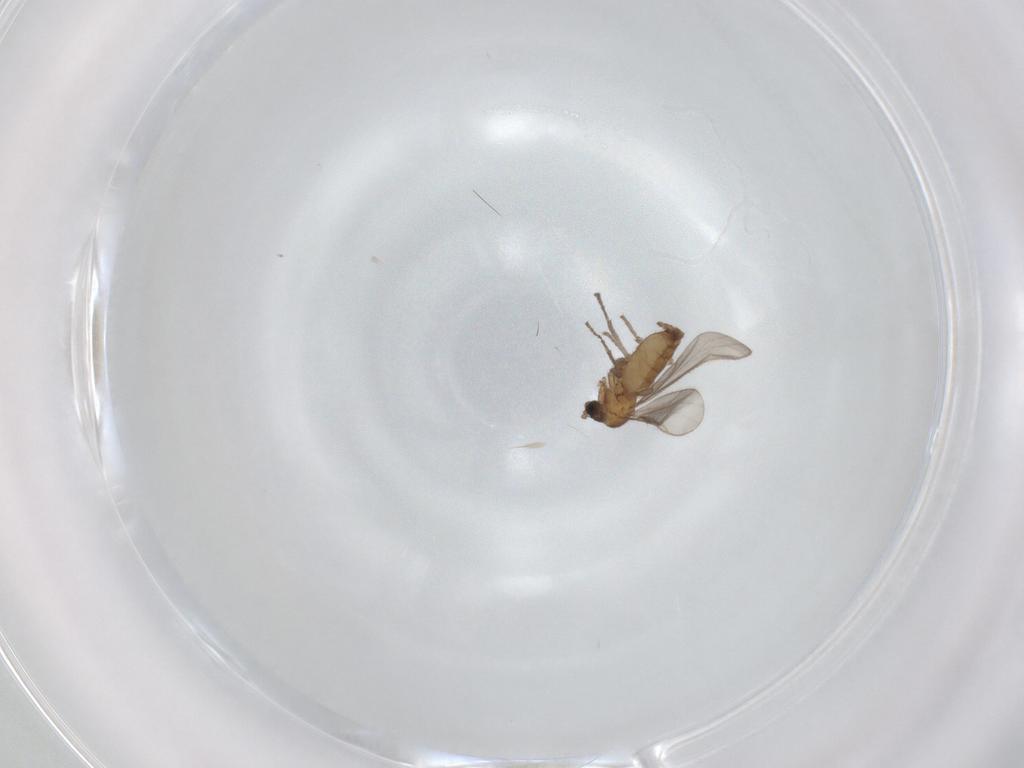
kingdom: Animalia
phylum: Arthropoda
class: Insecta
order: Diptera
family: Sciaridae
